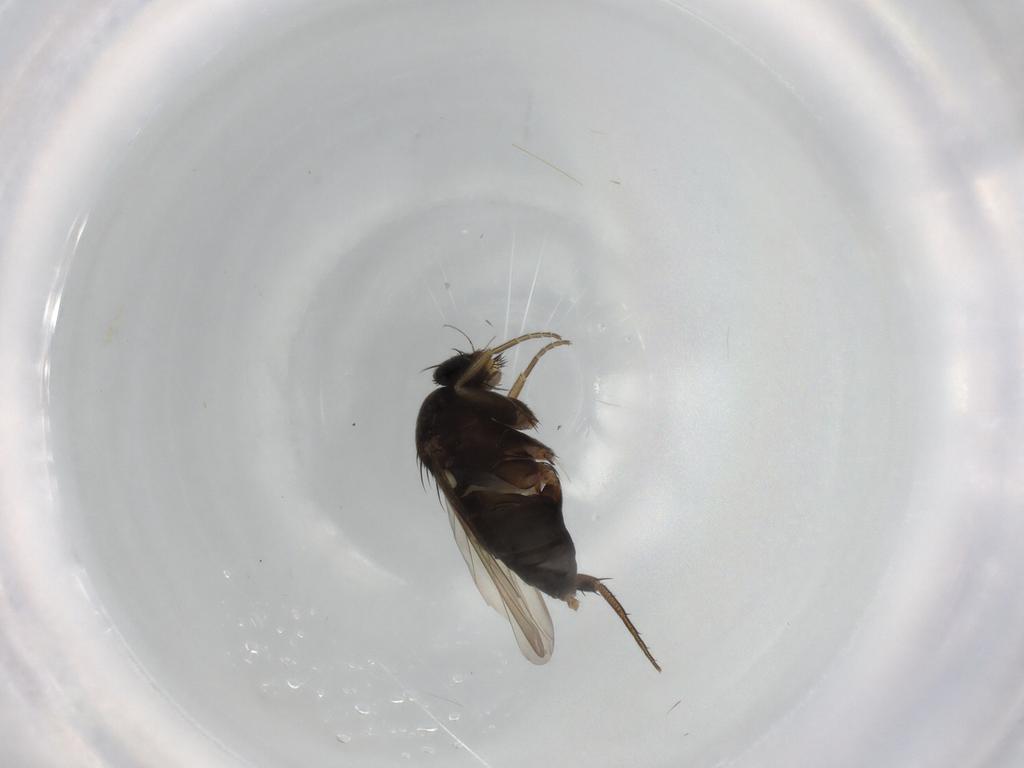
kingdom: Animalia
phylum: Arthropoda
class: Insecta
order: Diptera
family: Phoridae
